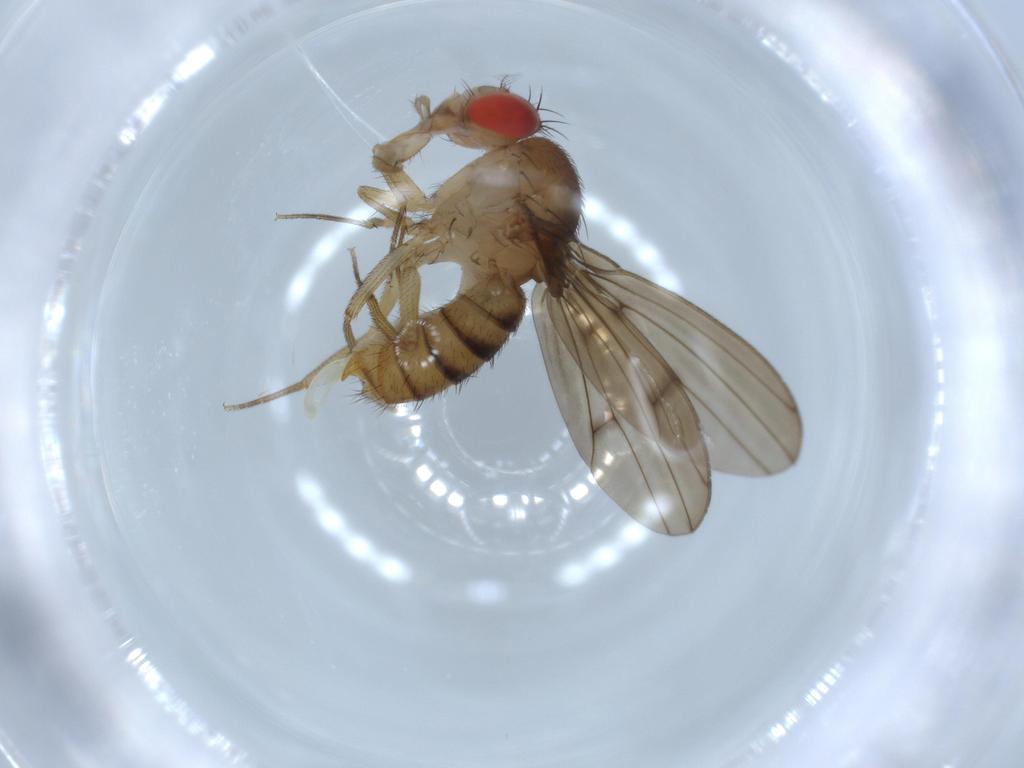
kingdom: Animalia
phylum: Arthropoda
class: Insecta
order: Diptera
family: Drosophilidae
